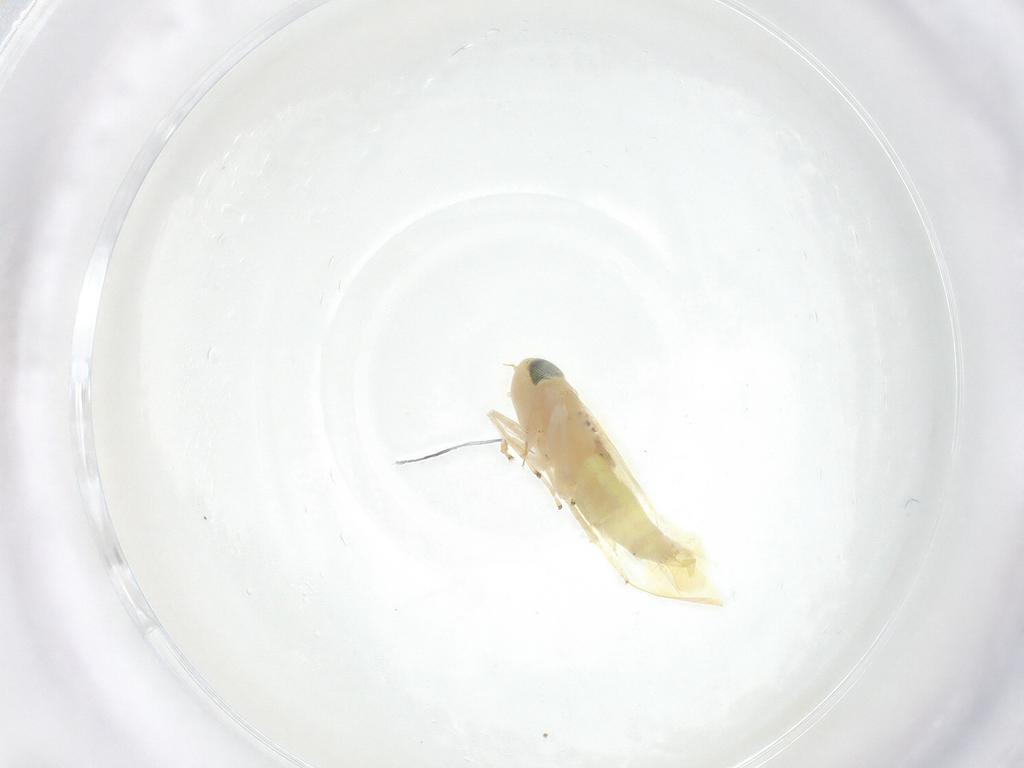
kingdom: Animalia
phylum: Arthropoda
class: Insecta
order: Hemiptera
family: Cicadellidae
